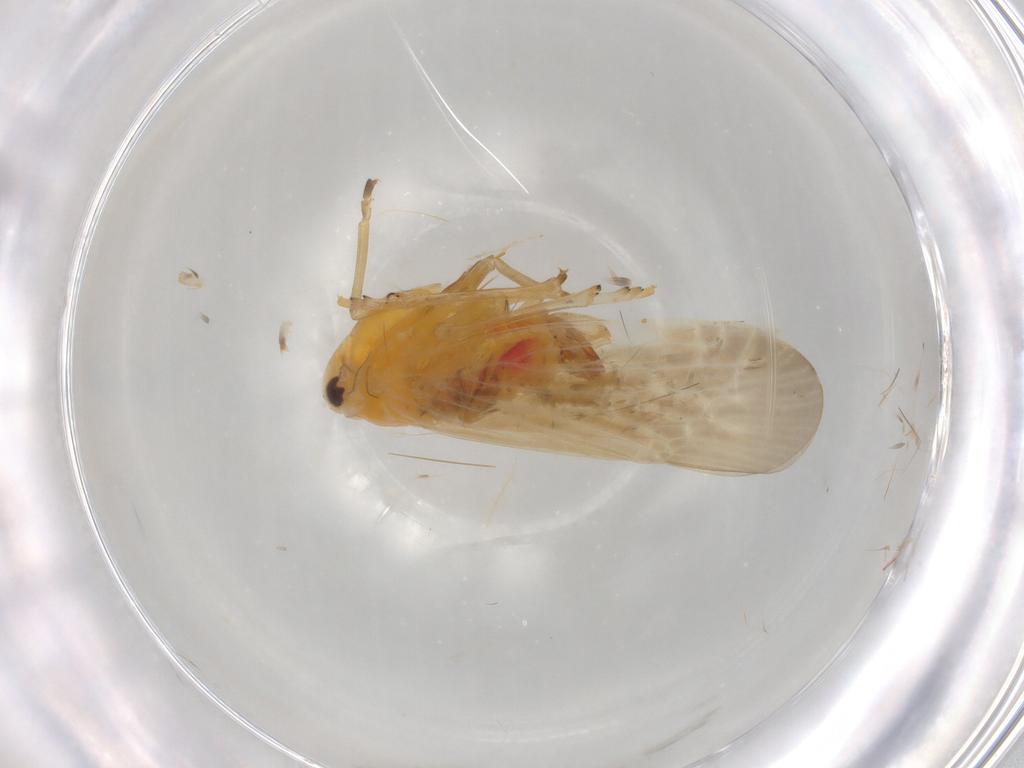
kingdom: Animalia
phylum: Arthropoda
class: Insecta
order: Hemiptera
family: Derbidae
